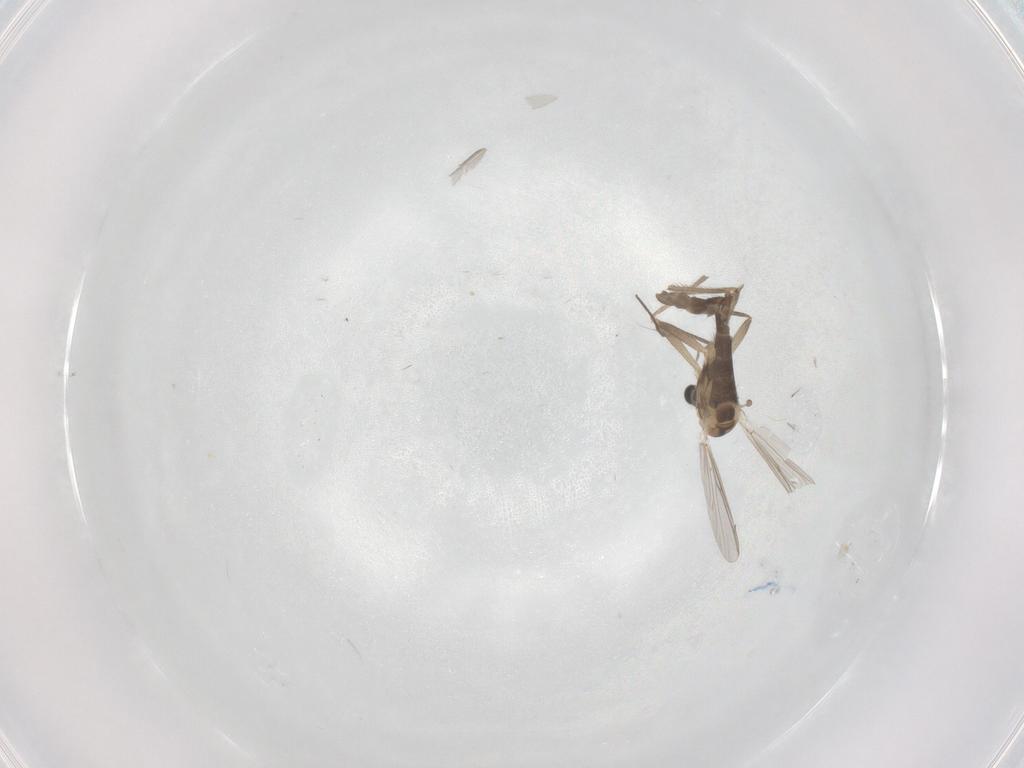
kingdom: Animalia
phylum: Arthropoda
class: Insecta
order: Diptera
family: Chironomidae
